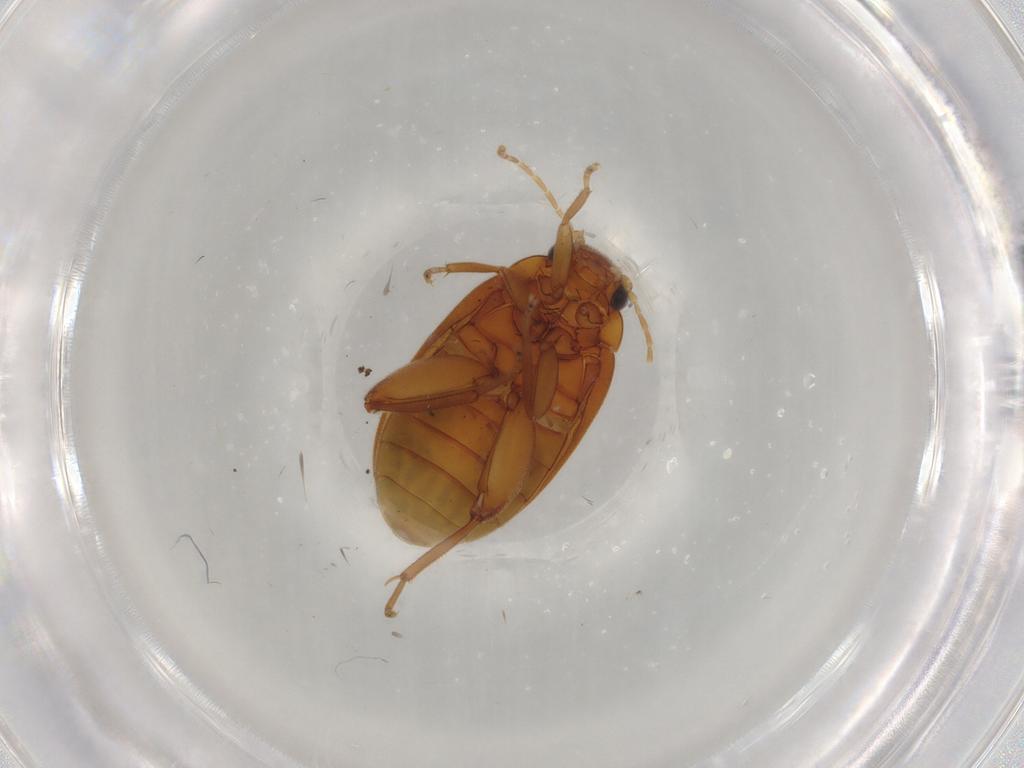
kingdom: Animalia
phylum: Arthropoda
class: Insecta
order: Coleoptera
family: Scirtidae
